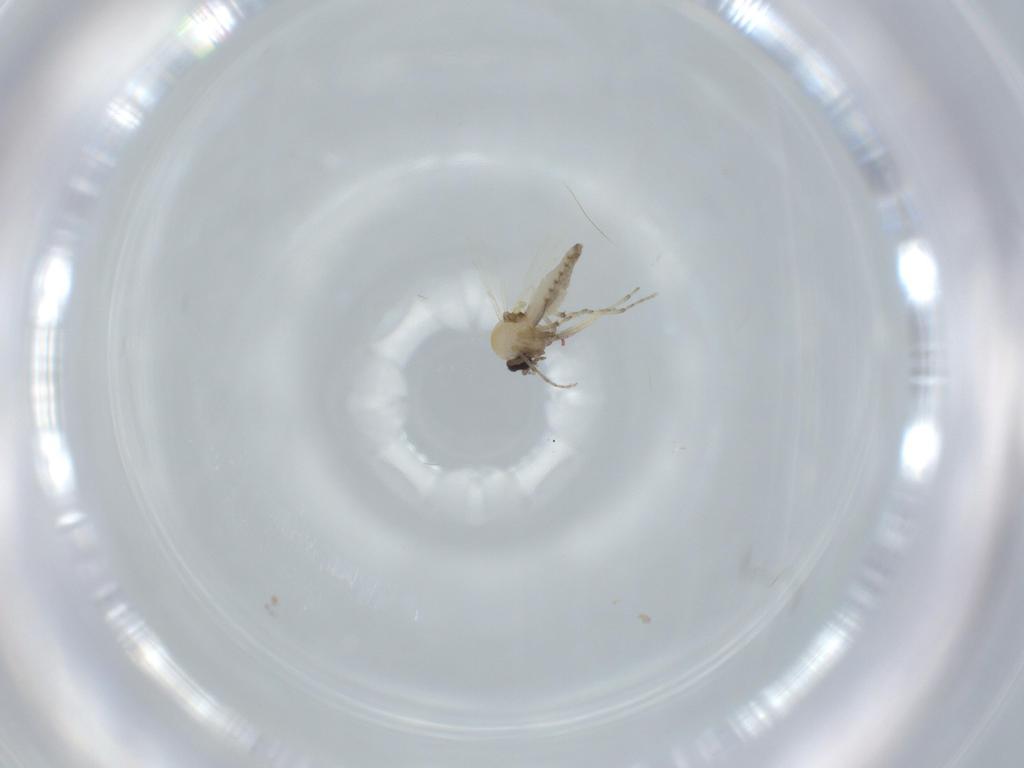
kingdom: Animalia
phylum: Arthropoda
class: Insecta
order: Diptera
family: Ceratopogonidae
